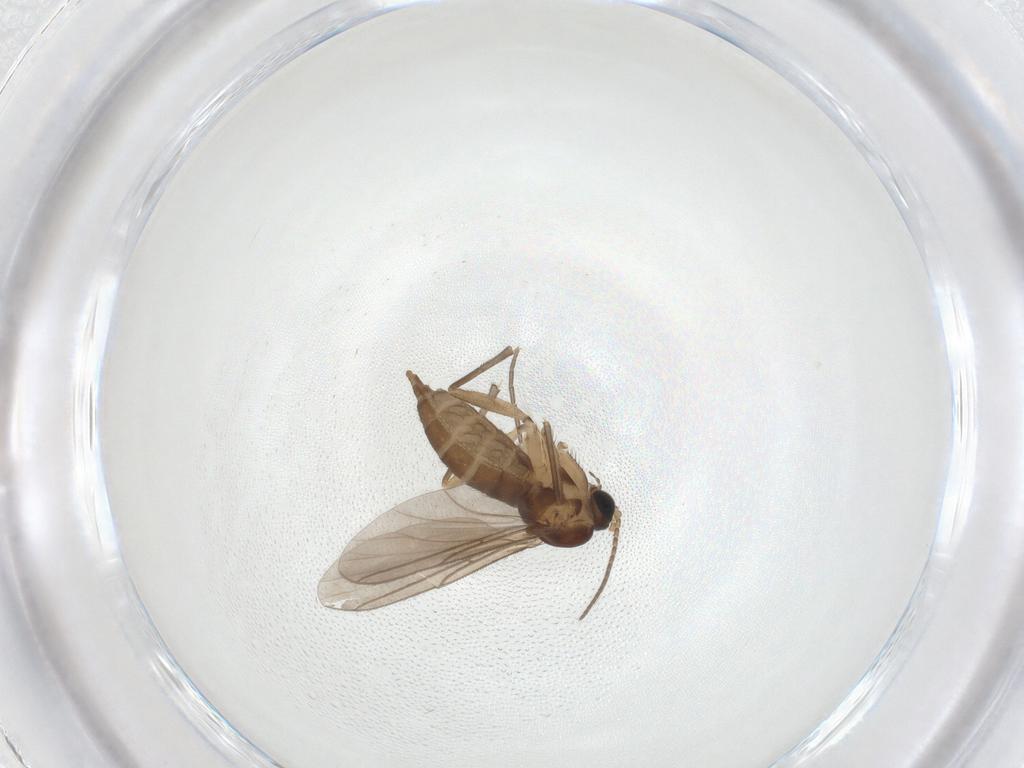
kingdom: Animalia
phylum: Arthropoda
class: Insecta
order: Diptera
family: Sciaridae
